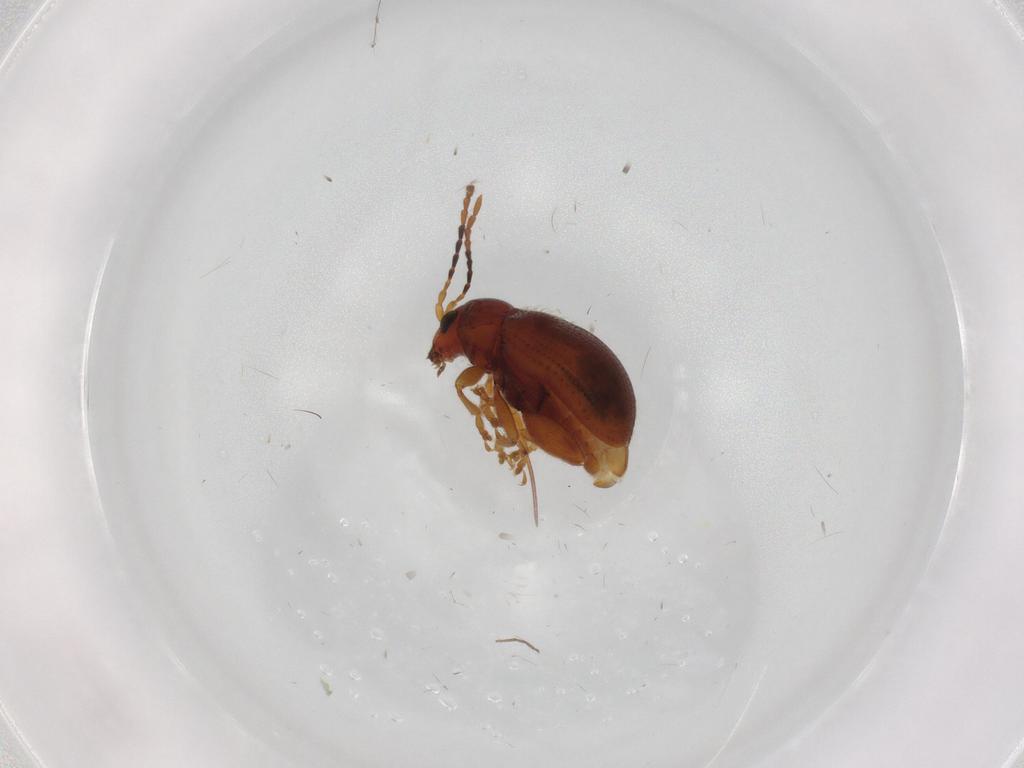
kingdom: Animalia
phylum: Arthropoda
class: Insecta
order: Coleoptera
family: Chrysomelidae
